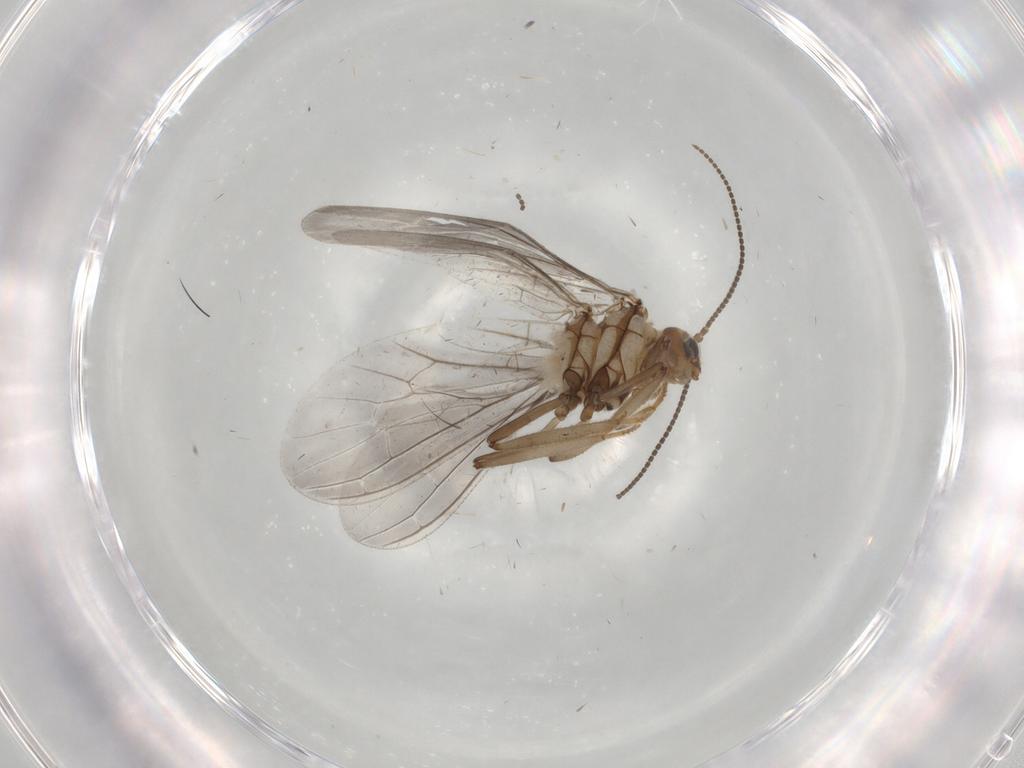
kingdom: Animalia
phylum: Arthropoda
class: Insecta
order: Neuroptera
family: Coniopterygidae
